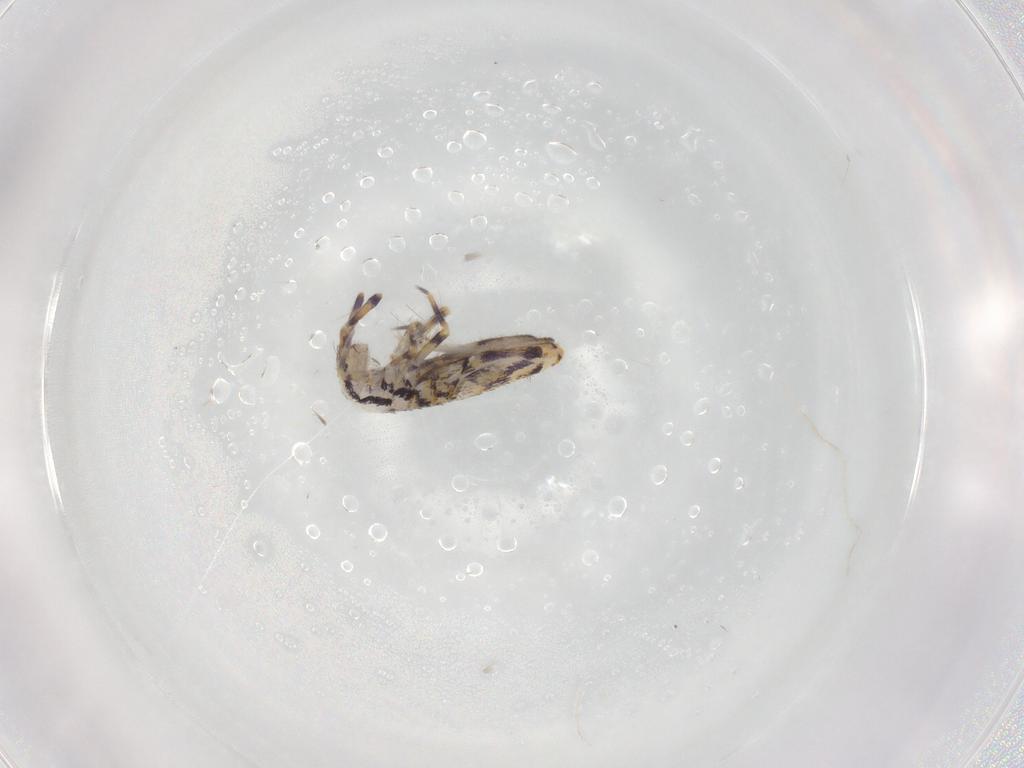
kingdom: Animalia
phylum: Arthropoda
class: Collembola
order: Entomobryomorpha
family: Entomobryidae
